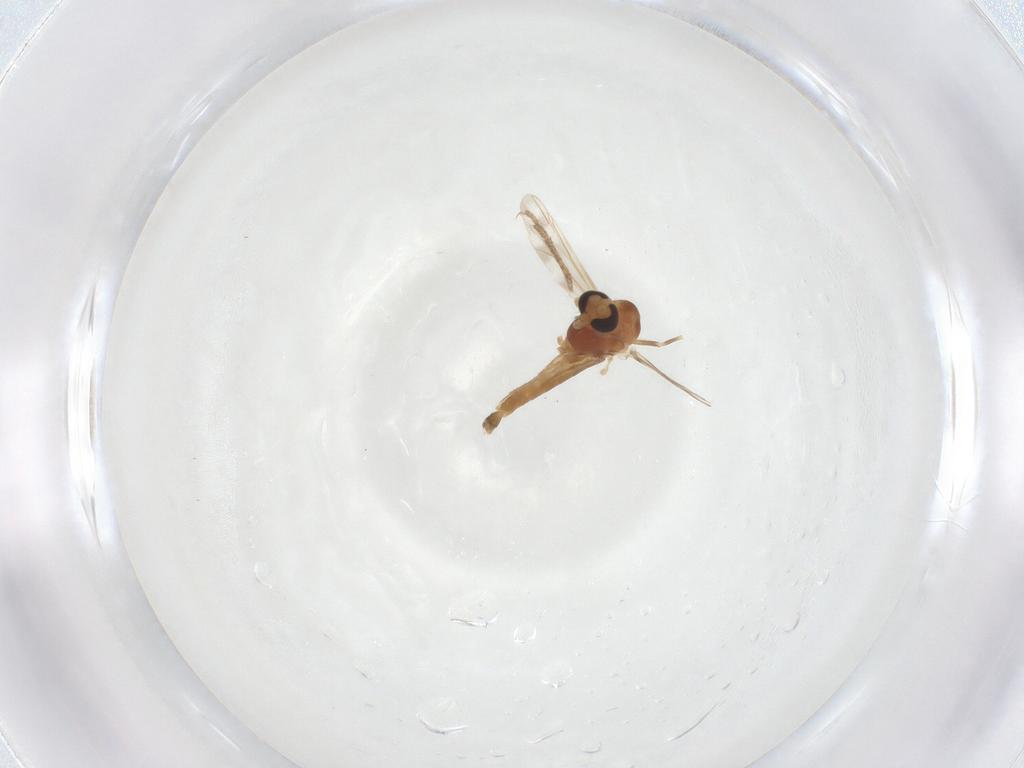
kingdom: Animalia
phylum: Arthropoda
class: Insecta
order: Diptera
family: Chironomidae
